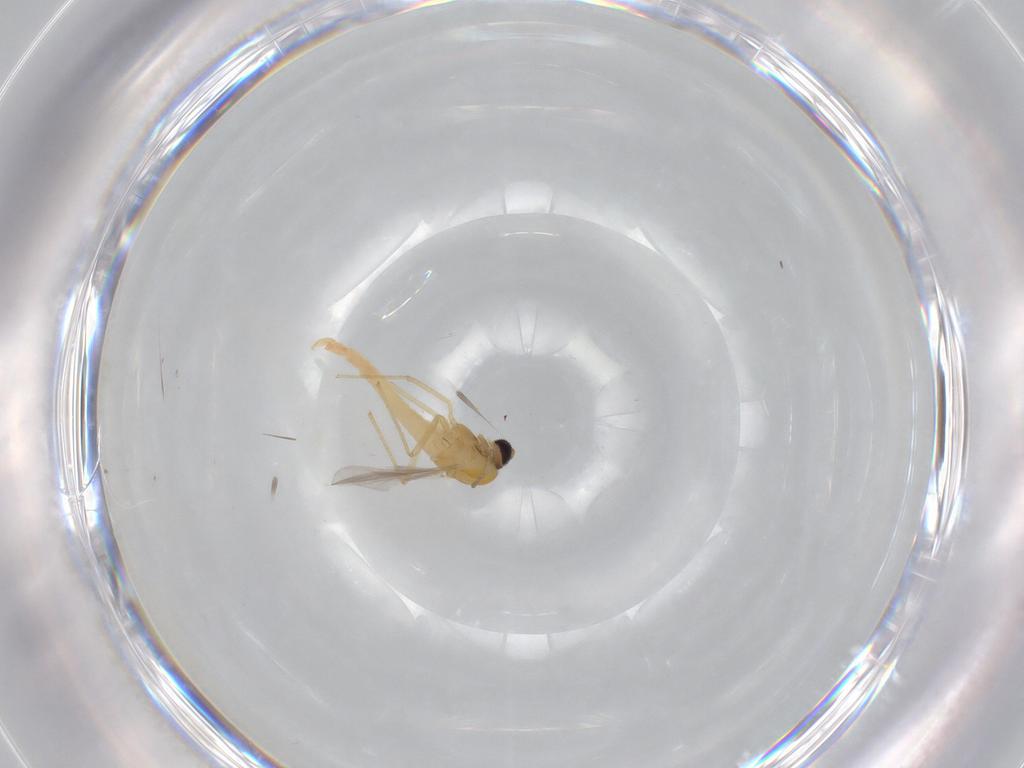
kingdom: Animalia
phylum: Arthropoda
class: Insecta
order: Diptera
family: Chironomidae
